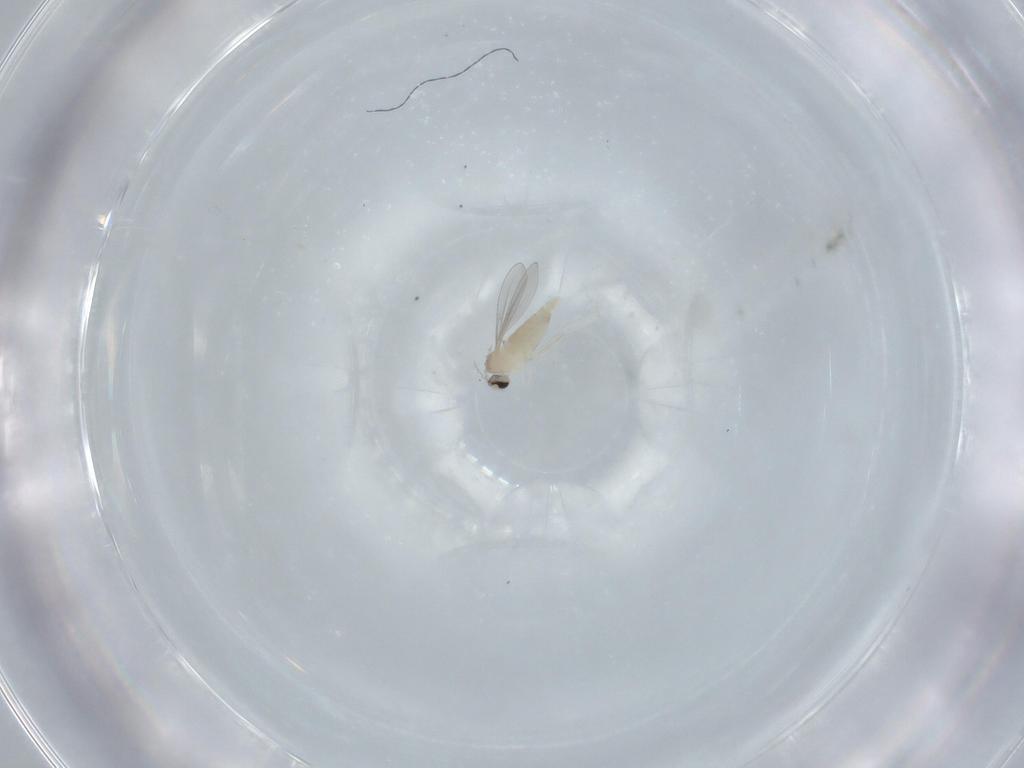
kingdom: Animalia
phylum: Arthropoda
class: Insecta
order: Diptera
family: Cecidomyiidae
